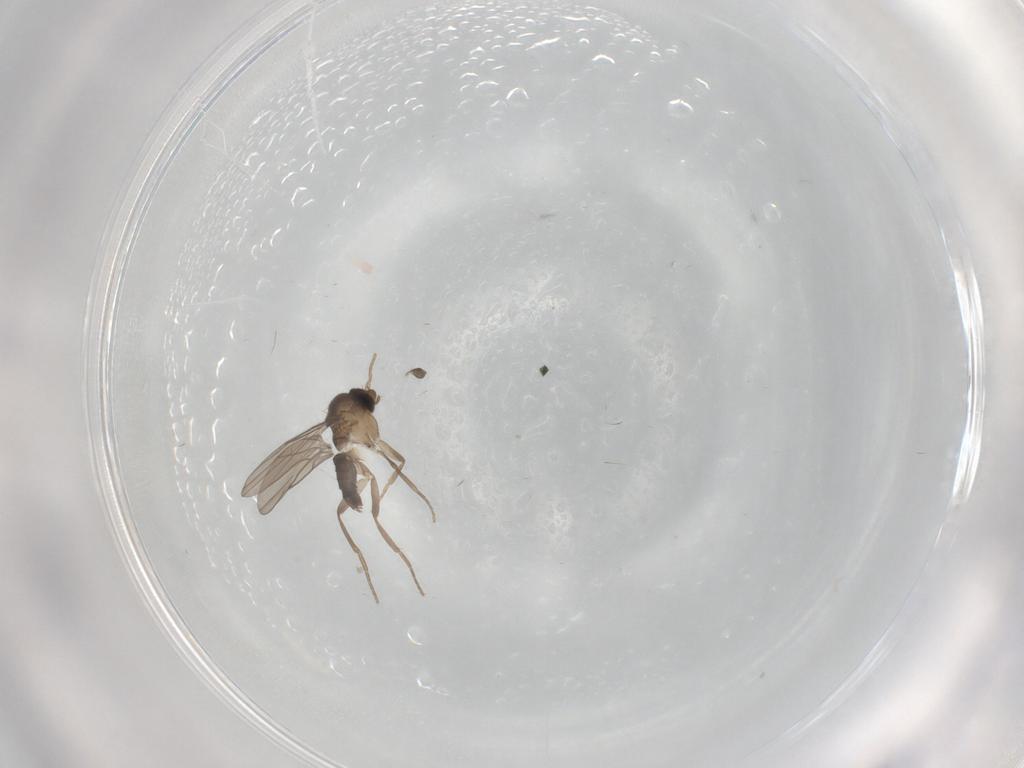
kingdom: Animalia
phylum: Arthropoda
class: Insecta
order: Diptera
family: Phoridae
